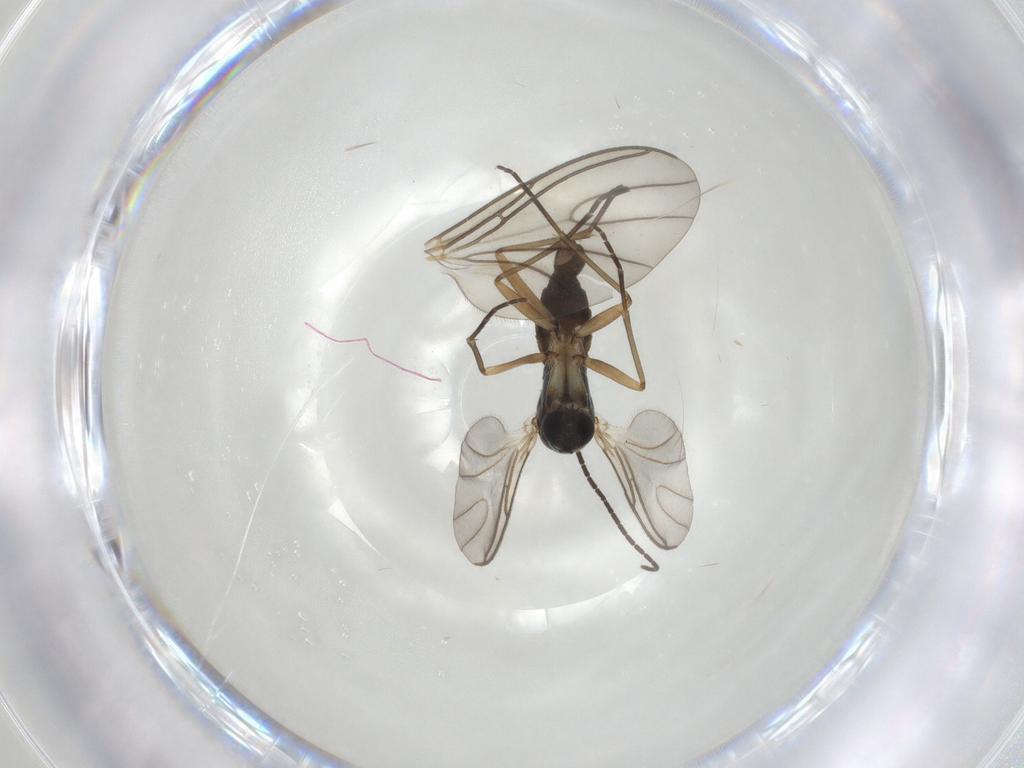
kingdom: Animalia
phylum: Arthropoda
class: Insecta
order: Diptera
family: Sciaridae
